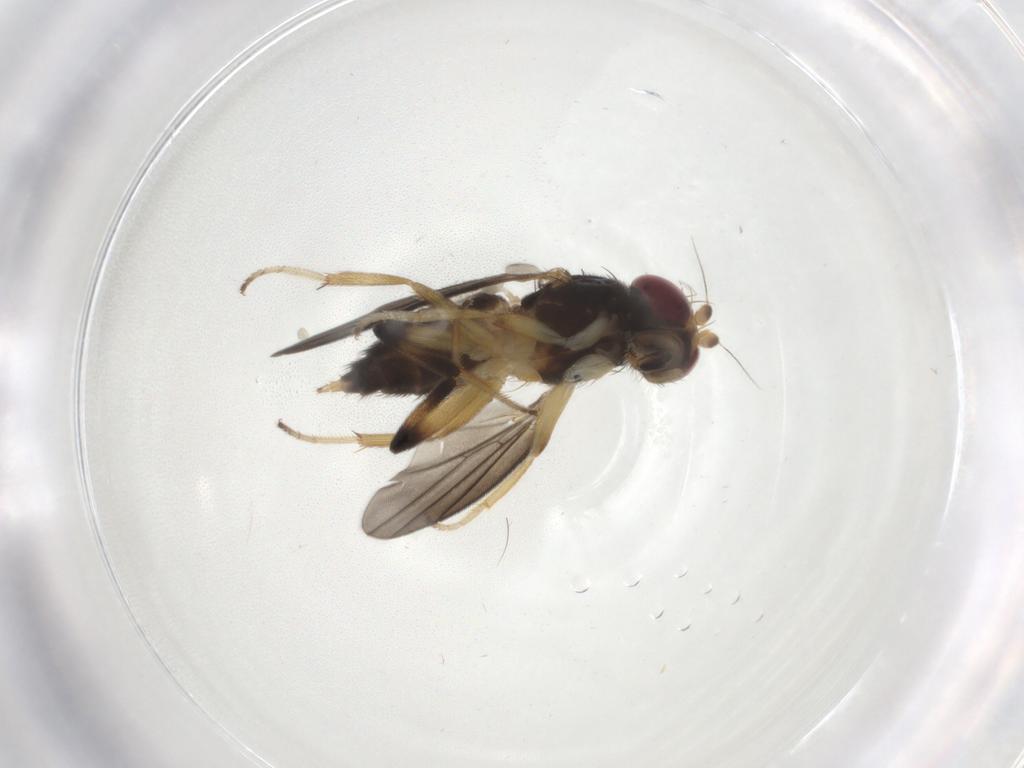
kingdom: Animalia
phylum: Arthropoda
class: Insecta
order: Diptera
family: Clusiidae
